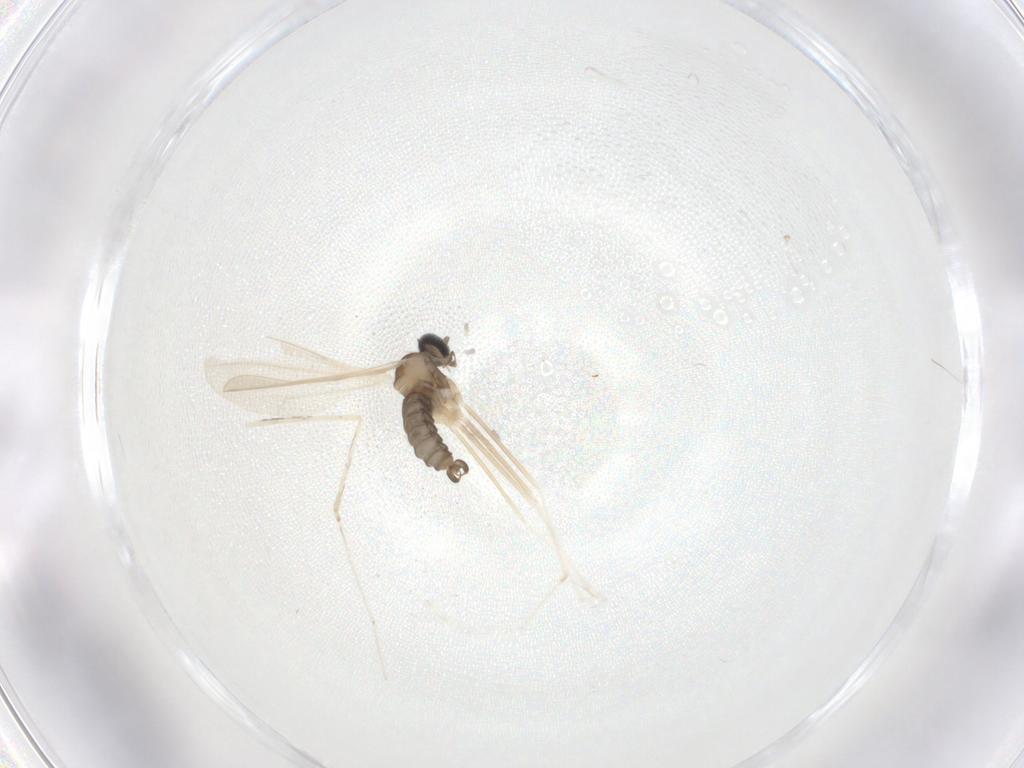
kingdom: Animalia
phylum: Arthropoda
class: Insecta
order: Diptera
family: Cecidomyiidae
